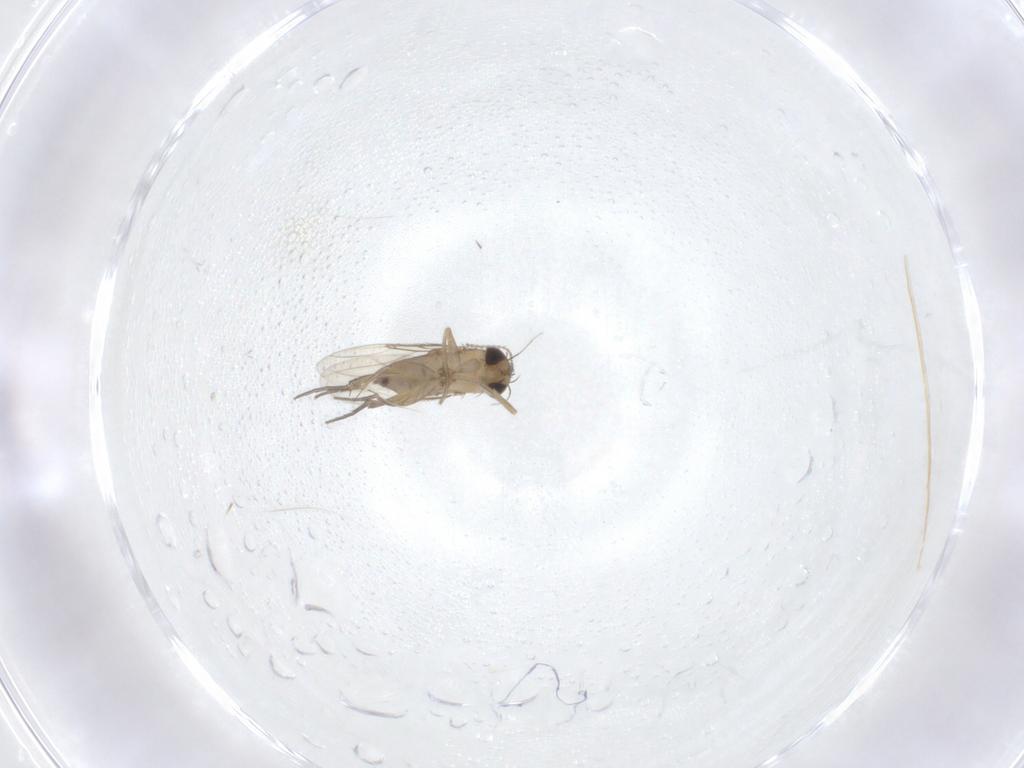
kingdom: Animalia
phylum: Arthropoda
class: Insecta
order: Diptera
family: Phoridae
